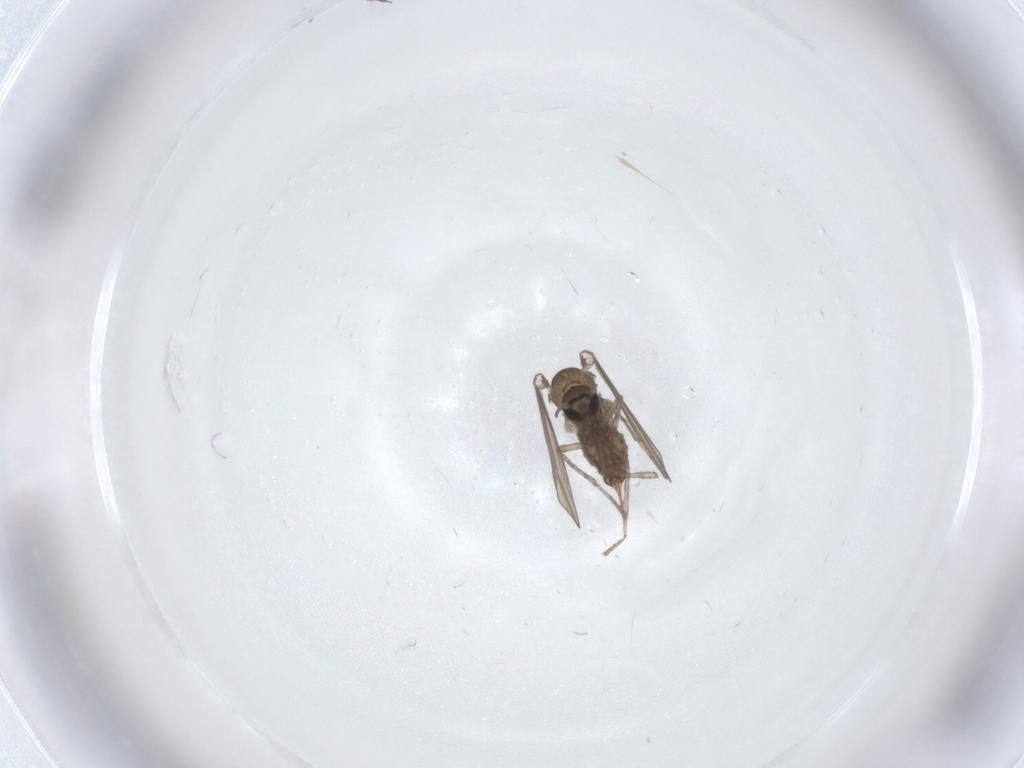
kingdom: Animalia
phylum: Arthropoda
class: Insecta
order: Diptera
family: Psychodidae
